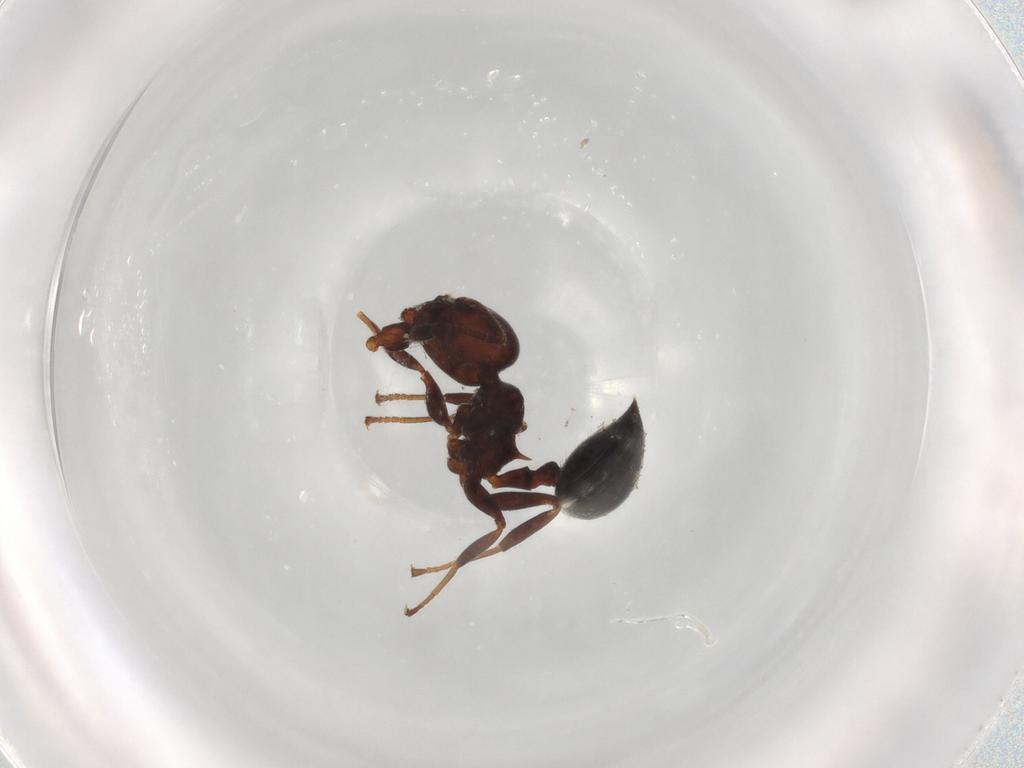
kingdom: Animalia
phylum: Arthropoda
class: Insecta
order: Hymenoptera
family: Formicidae
